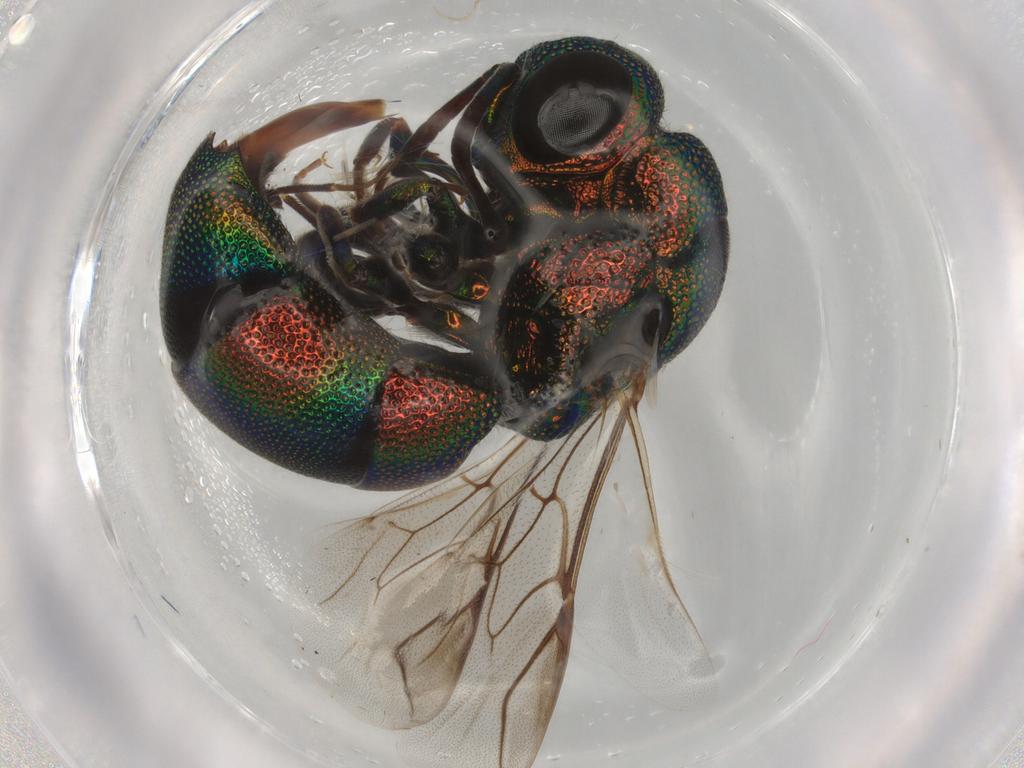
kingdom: Animalia
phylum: Arthropoda
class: Insecta
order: Hymenoptera
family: Chrysididae
